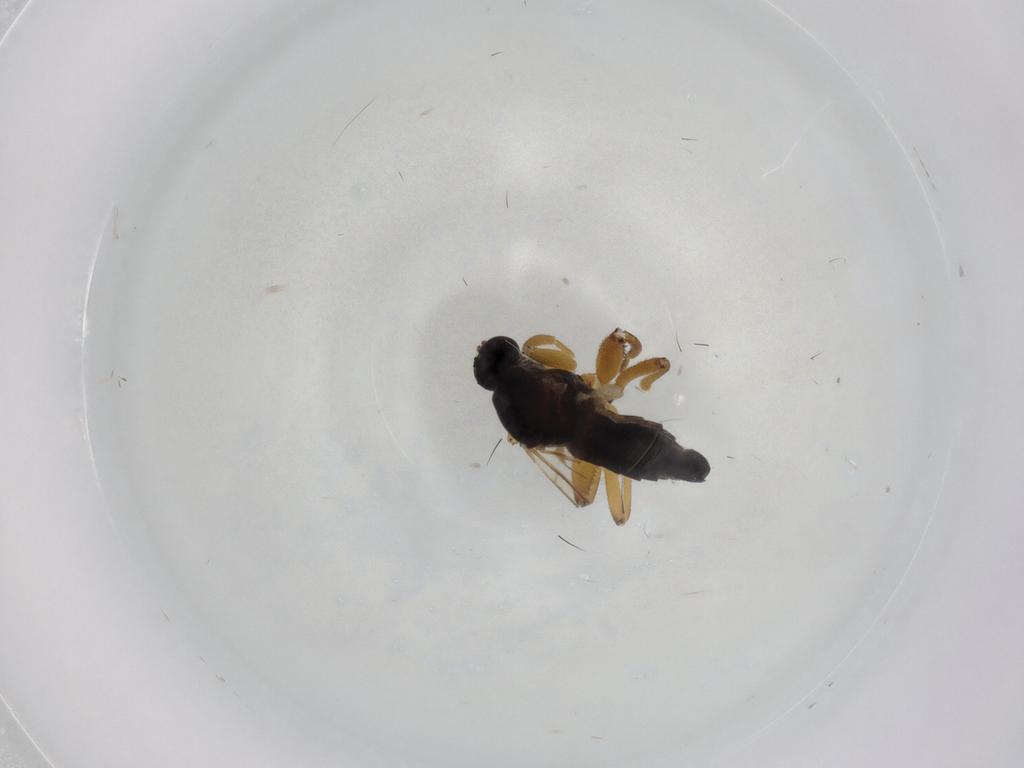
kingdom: Animalia
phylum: Arthropoda
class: Insecta
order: Diptera
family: Hybotidae
